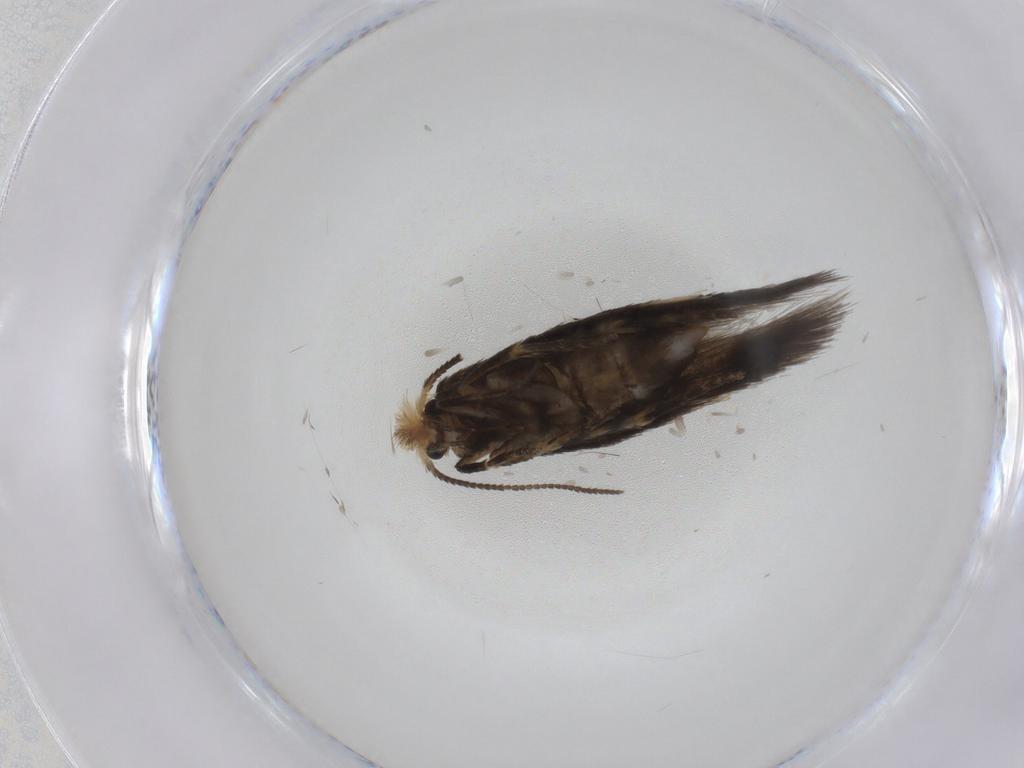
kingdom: Animalia
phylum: Arthropoda
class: Insecta
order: Lepidoptera
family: Nepticulidae
